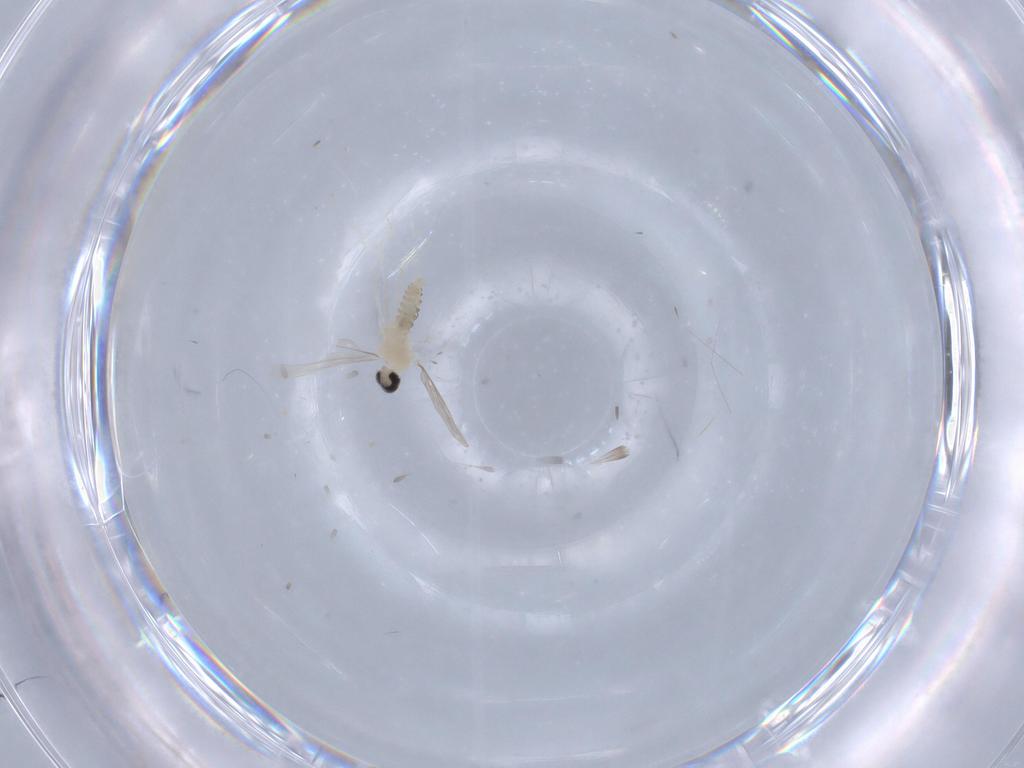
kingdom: Animalia
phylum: Arthropoda
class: Insecta
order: Diptera
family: Cecidomyiidae
